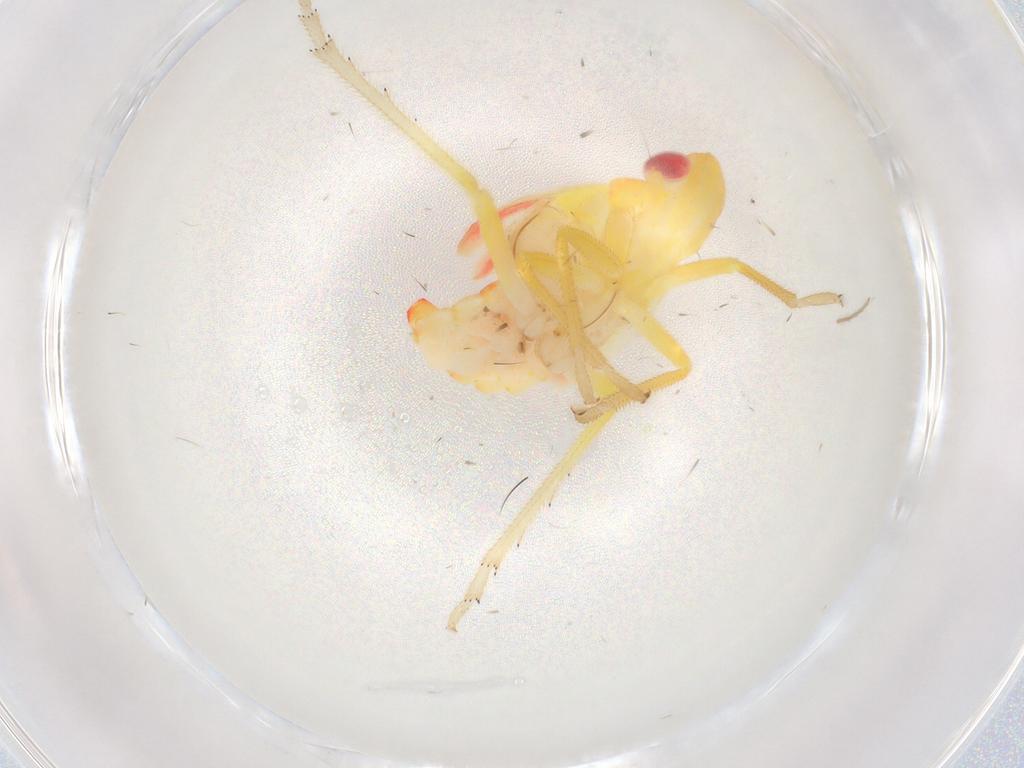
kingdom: Animalia
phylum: Arthropoda
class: Insecta
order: Hemiptera
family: Tropiduchidae
